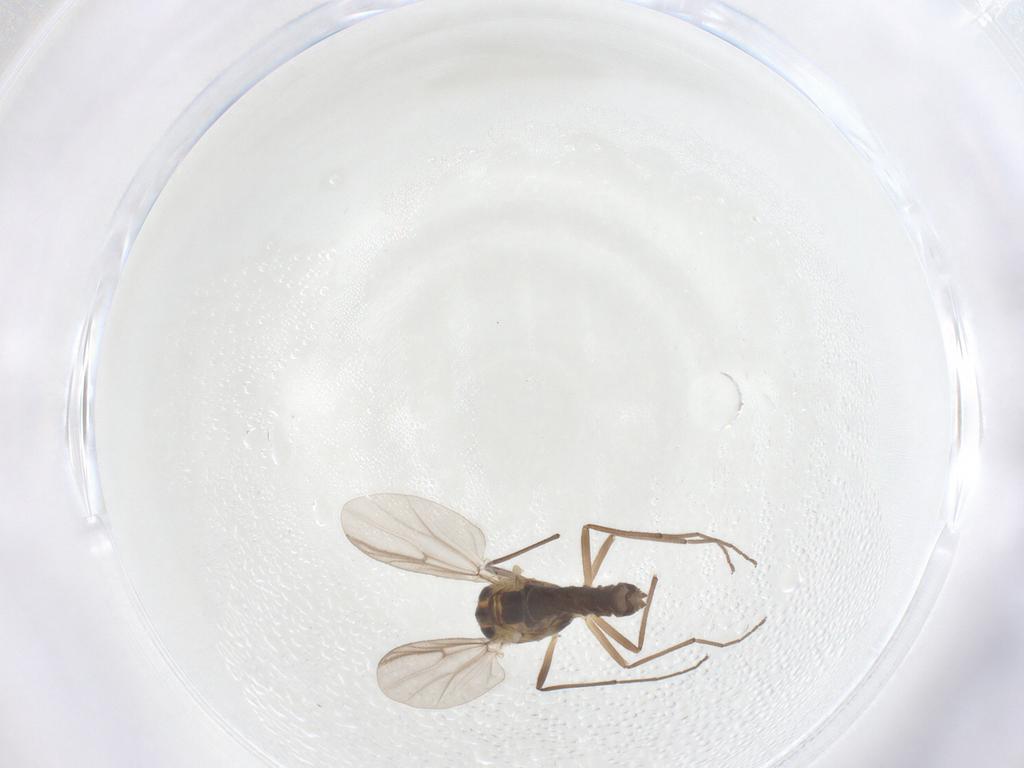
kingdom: Animalia
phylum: Arthropoda
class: Insecta
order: Diptera
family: Chironomidae
